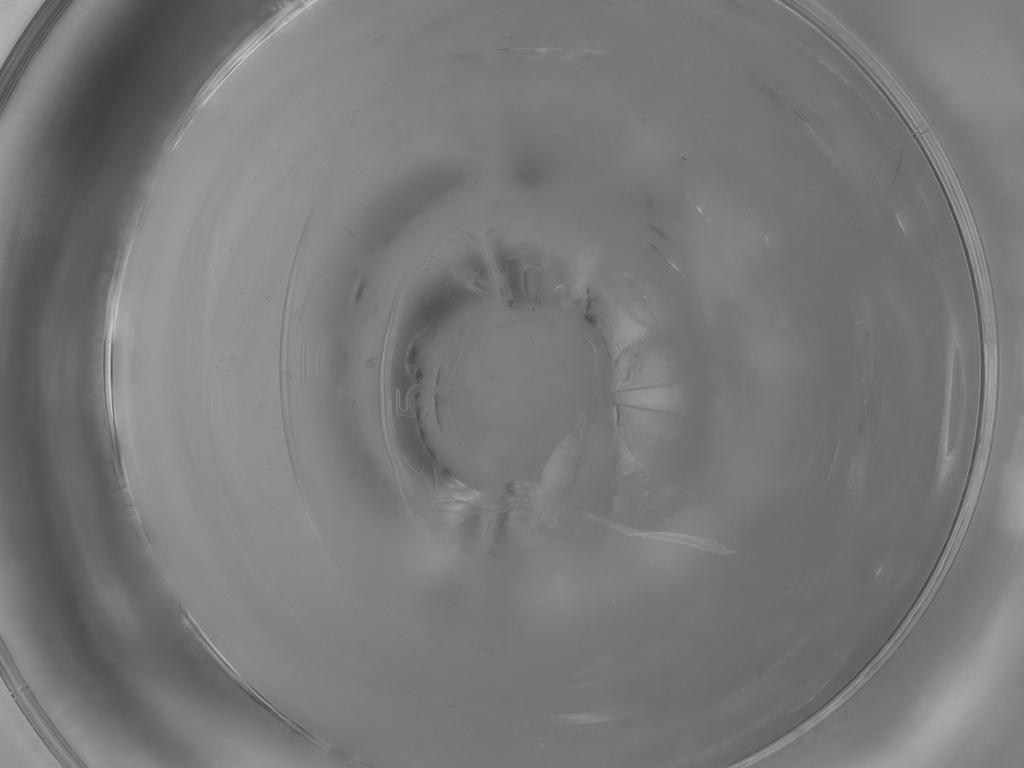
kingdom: Animalia
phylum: Arthropoda
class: Insecta
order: Diptera
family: Cecidomyiidae
